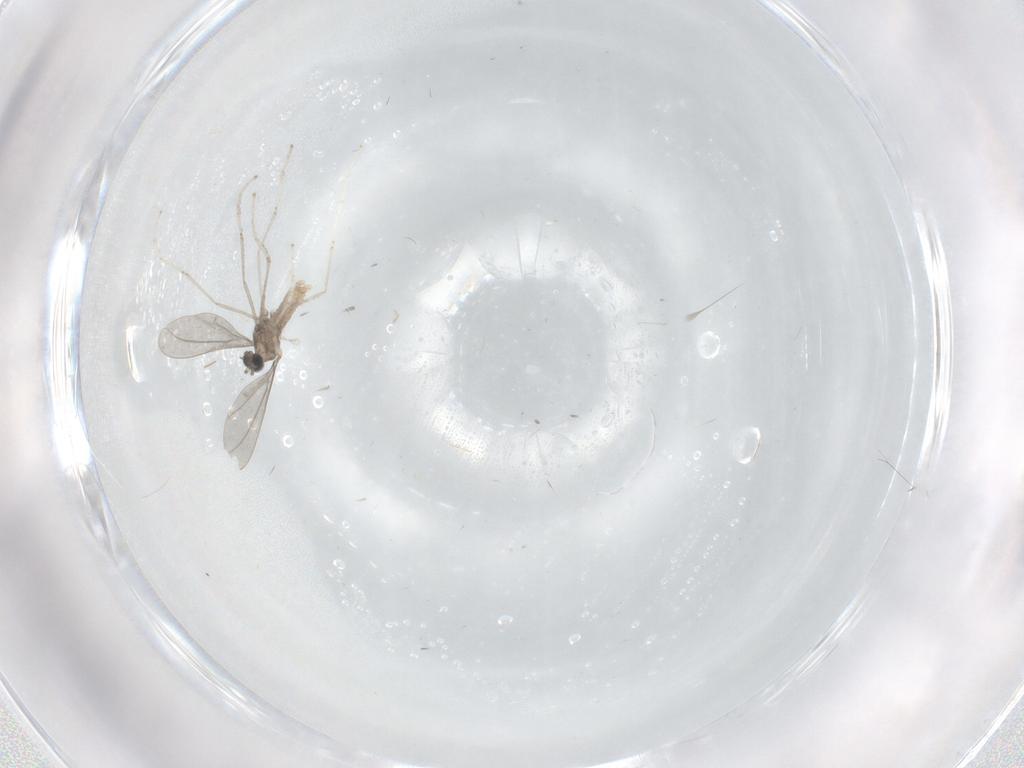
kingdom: Animalia
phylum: Arthropoda
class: Insecta
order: Diptera
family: Cecidomyiidae
